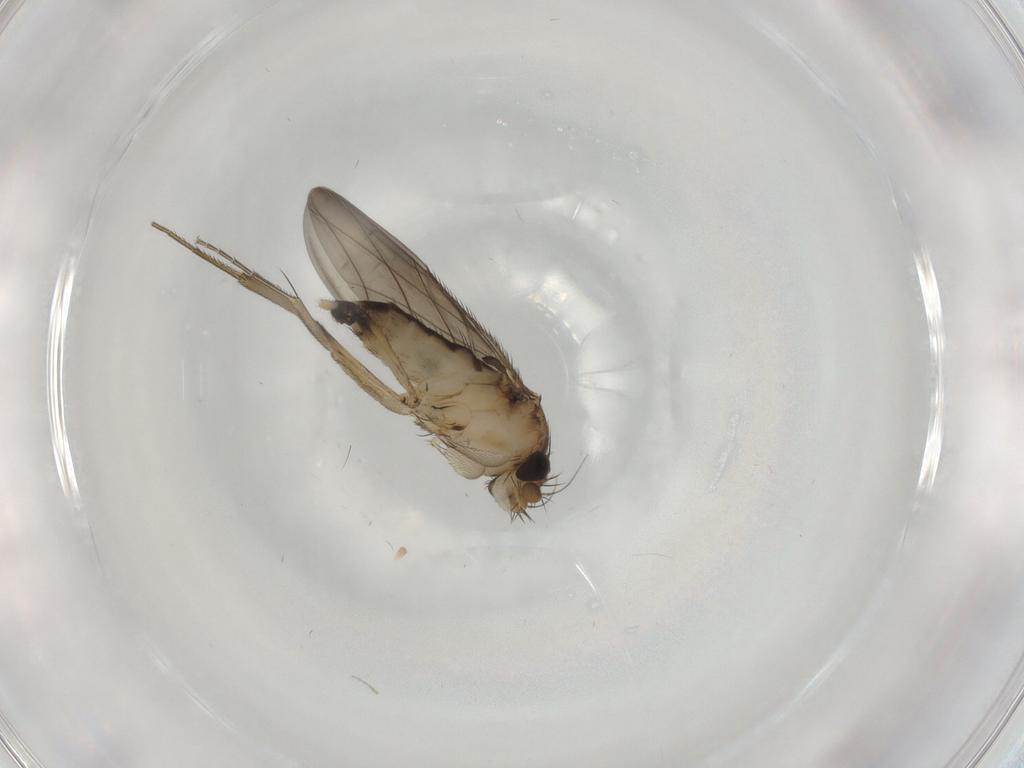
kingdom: Animalia
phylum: Arthropoda
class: Insecta
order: Diptera
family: Phoridae
